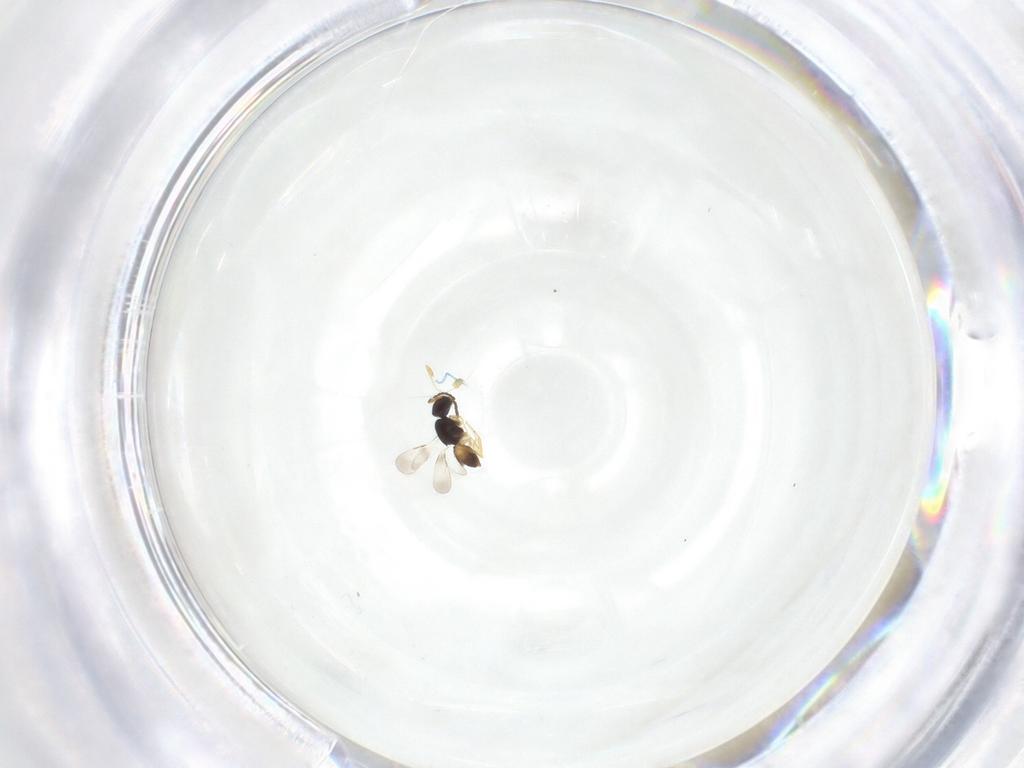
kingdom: Animalia
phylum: Arthropoda
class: Insecta
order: Hymenoptera
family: Ceraphronidae
